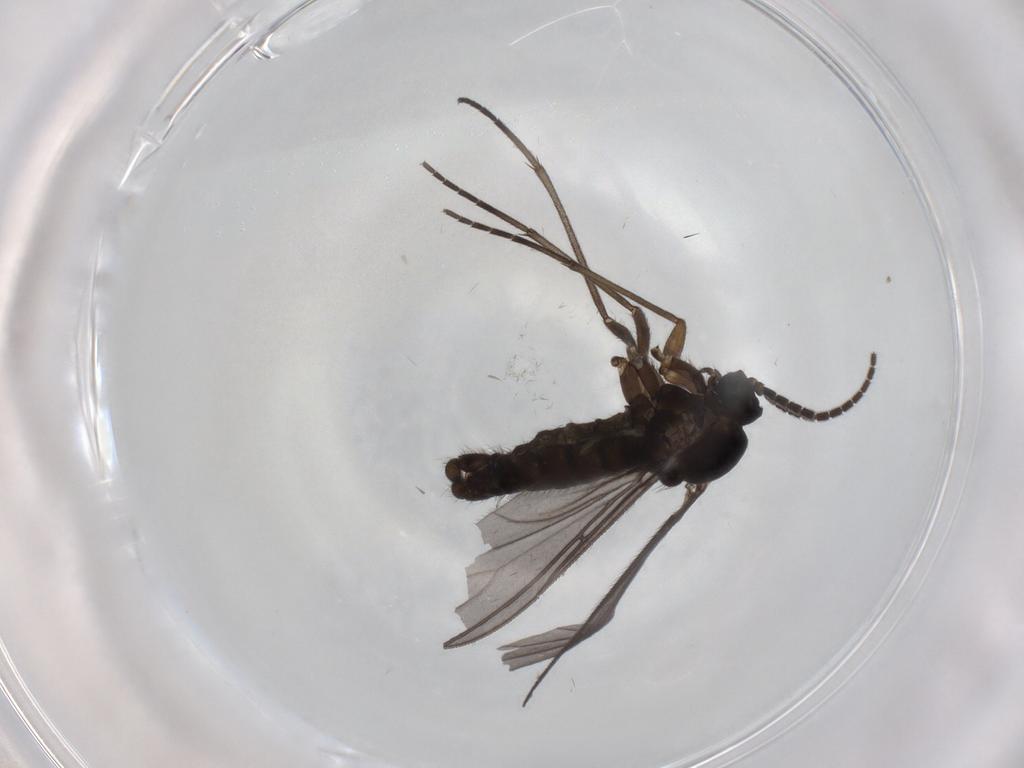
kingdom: Animalia
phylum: Arthropoda
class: Insecta
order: Diptera
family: Sciaridae
